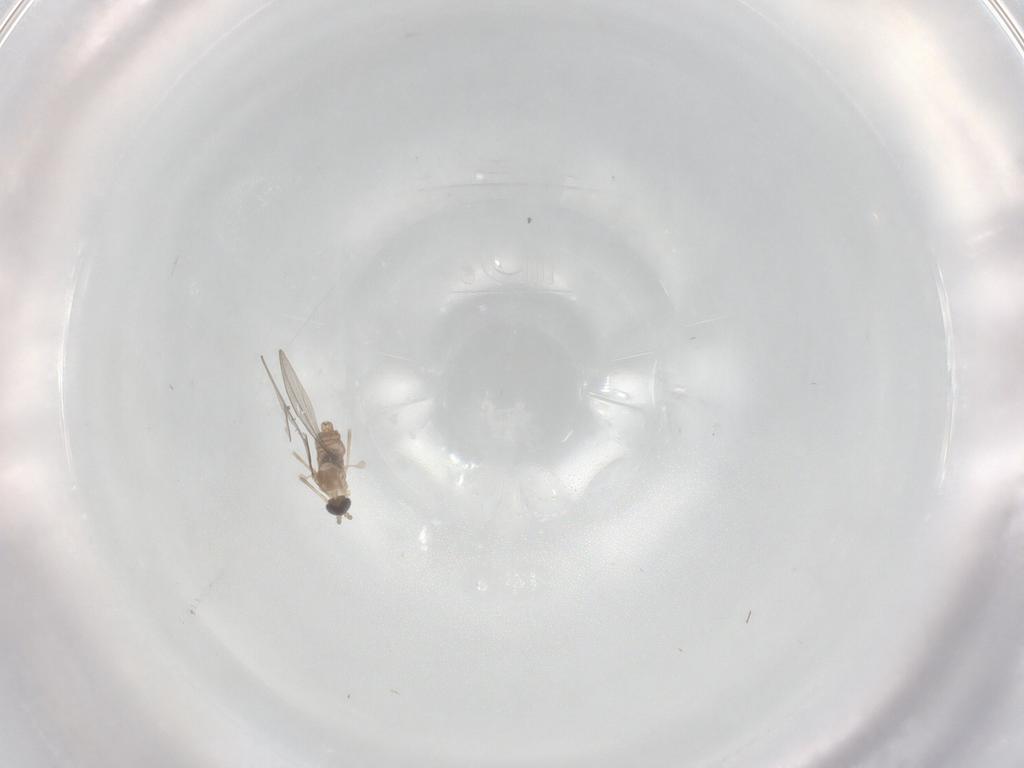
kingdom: Animalia
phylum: Arthropoda
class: Insecta
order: Diptera
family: Cecidomyiidae
